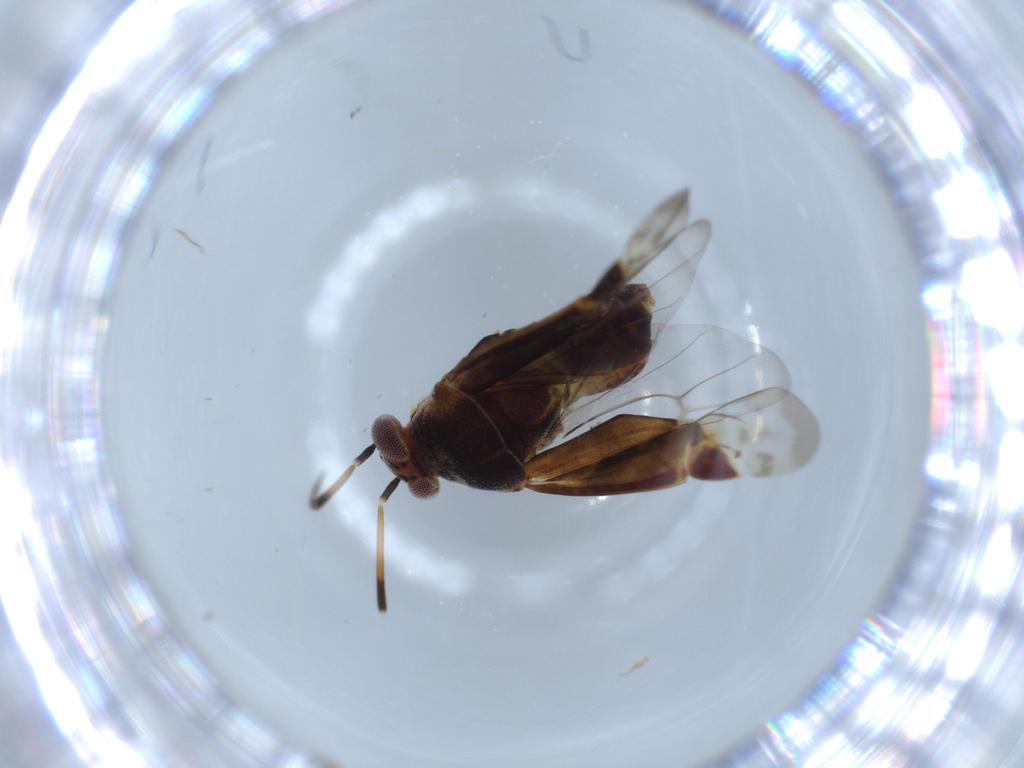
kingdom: Animalia
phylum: Arthropoda
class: Insecta
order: Hemiptera
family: Miridae
